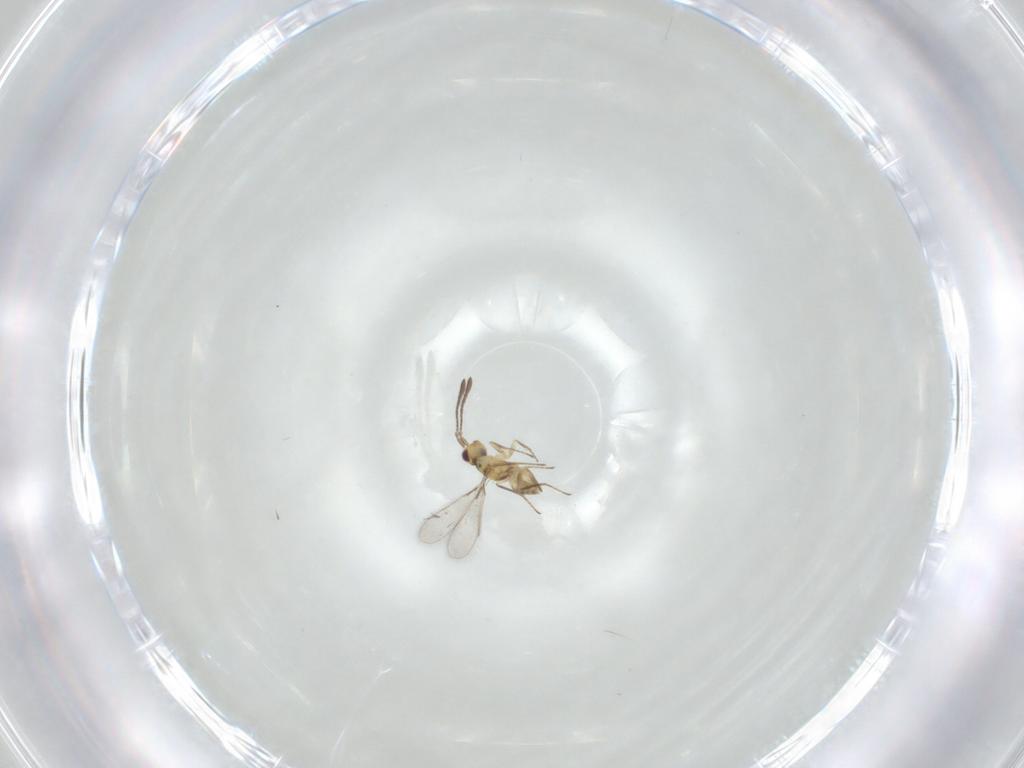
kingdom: Animalia
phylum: Arthropoda
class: Insecta
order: Hymenoptera
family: Mymaridae
